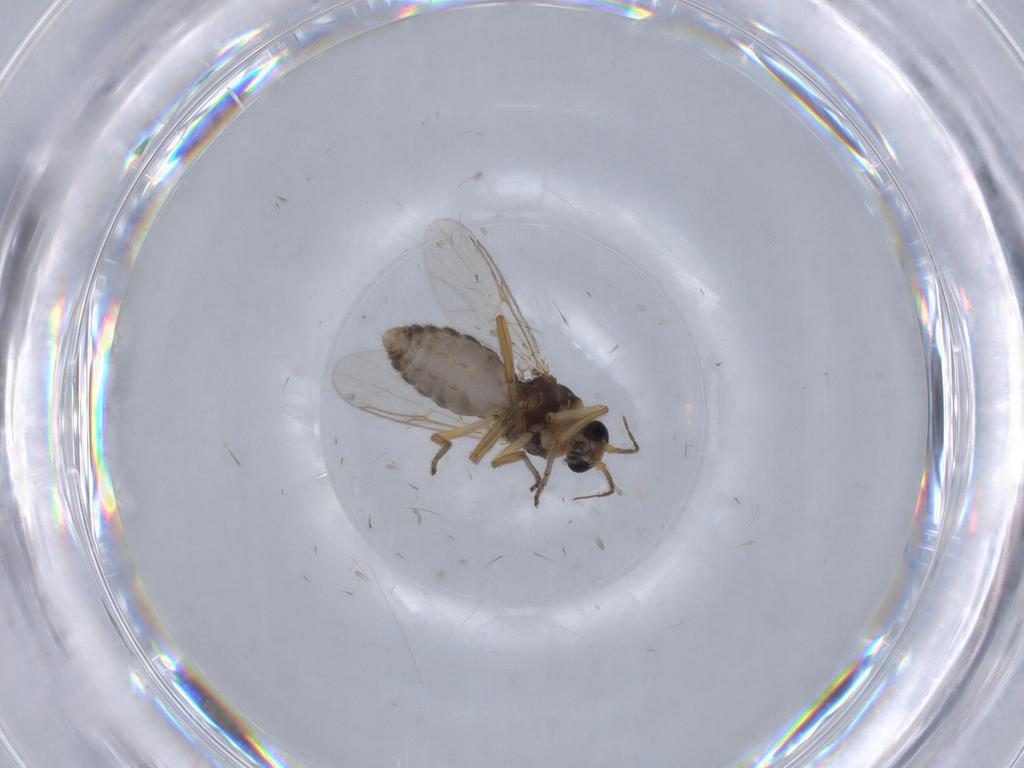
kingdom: Animalia
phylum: Arthropoda
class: Insecta
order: Diptera
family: Ceratopogonidae
